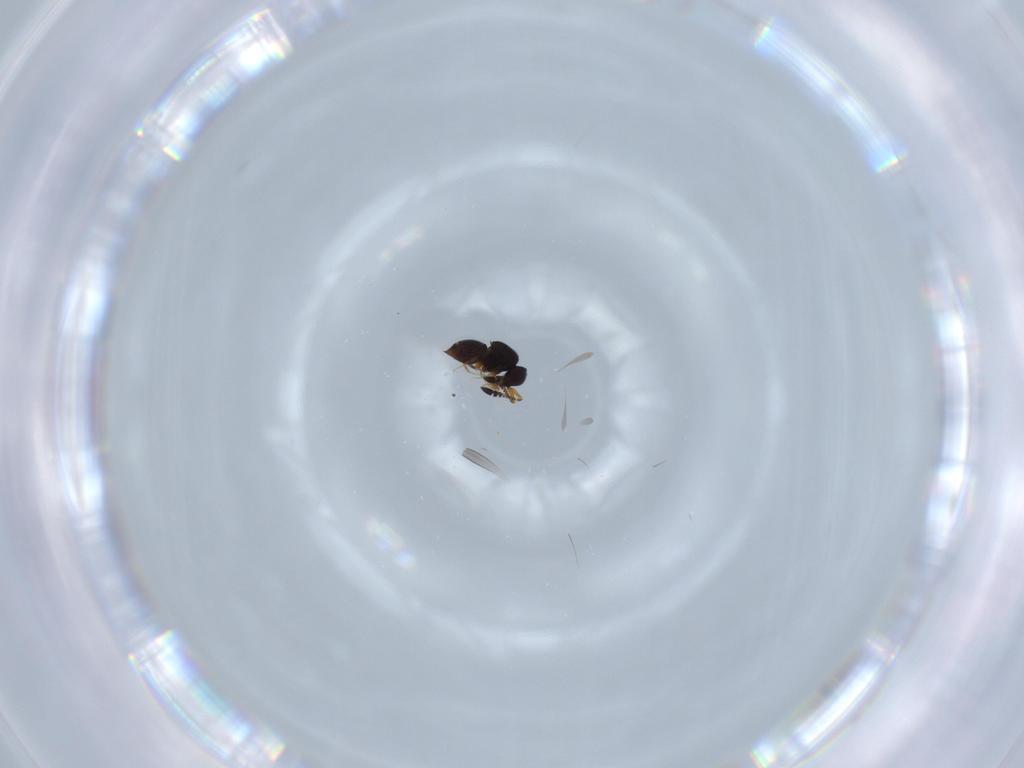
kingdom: Animalia
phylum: Arthropoda
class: Insecta
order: Hymenoptera
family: Ceraphronidae
